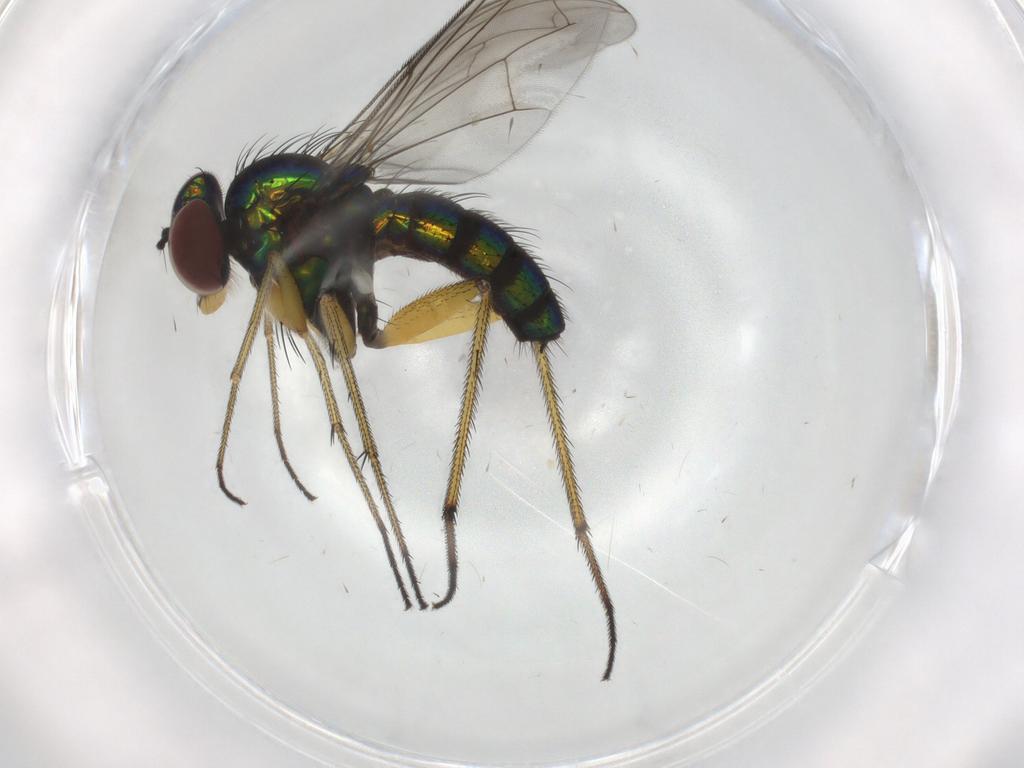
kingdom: Animalia
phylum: Arthropoda
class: Insecta
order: Diptera
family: Dolichopodidae
